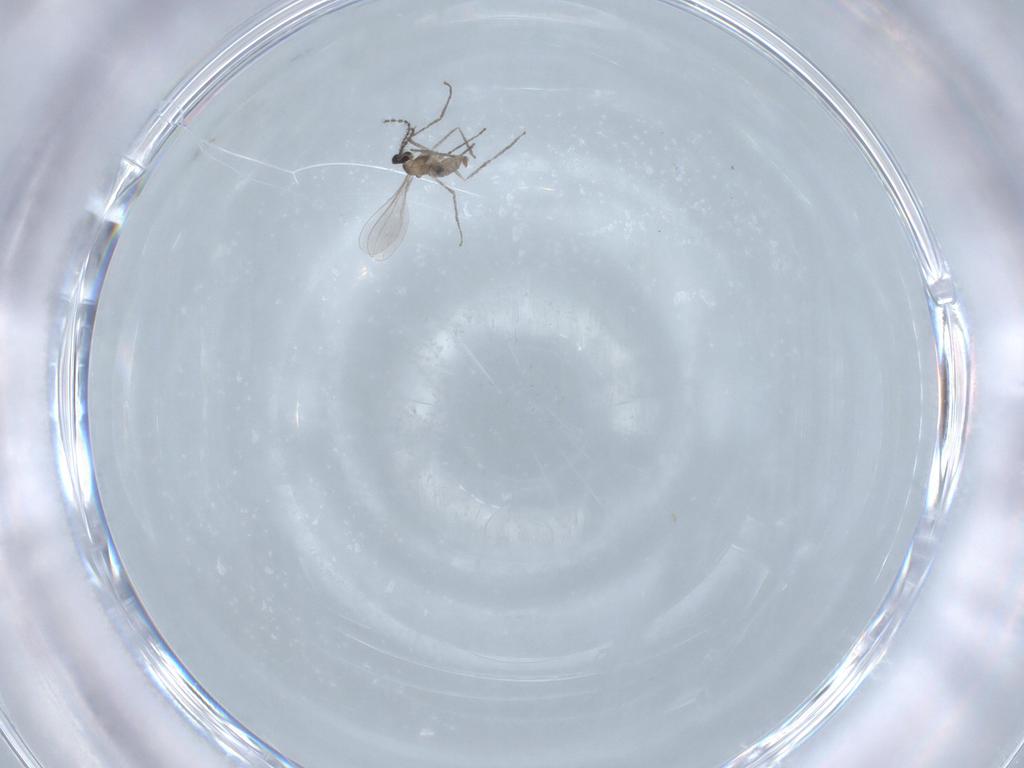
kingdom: Animalia
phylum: Arthropoda
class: Insecta
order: Diptera
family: Cecidomyiidae
